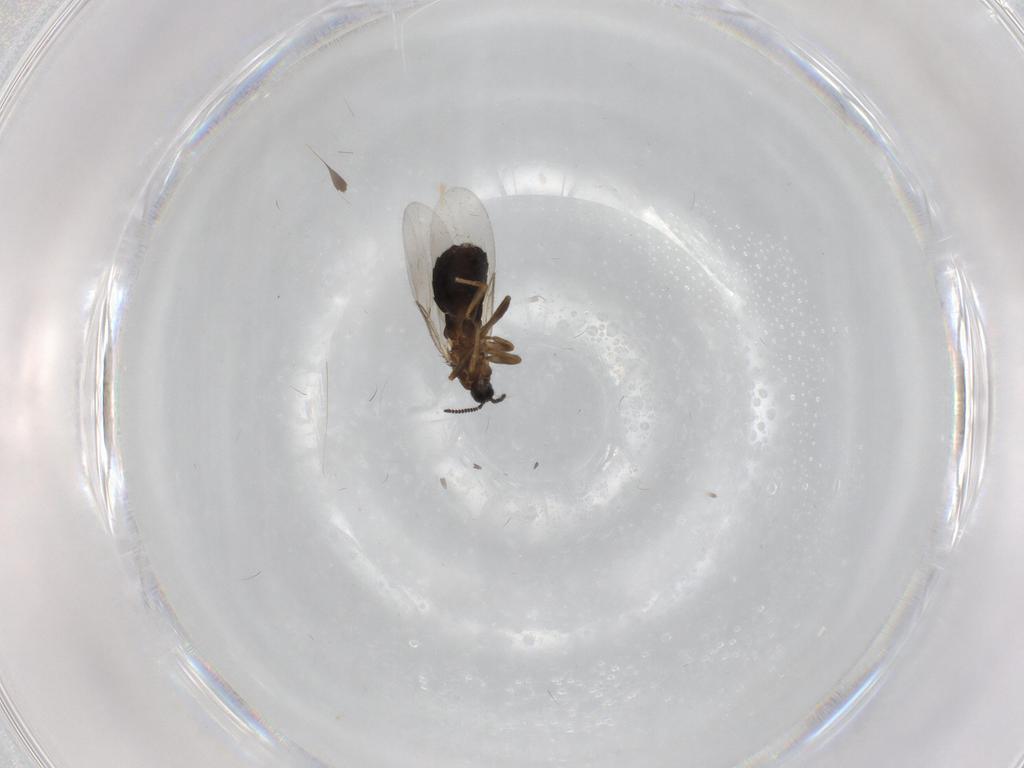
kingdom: Animalia
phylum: Arthropoda
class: Insecta
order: Diptera
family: Scatopsidae
